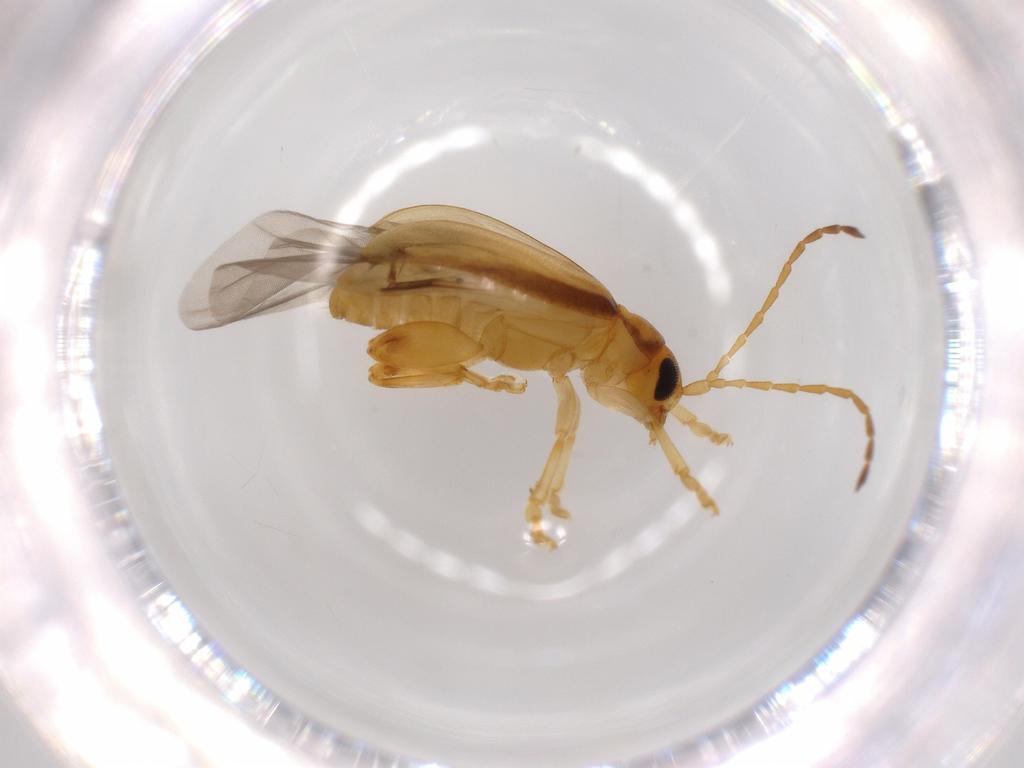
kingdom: Animalia
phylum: Arthropoda
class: Insecta
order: Coleoptera
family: Chrysomelidae
